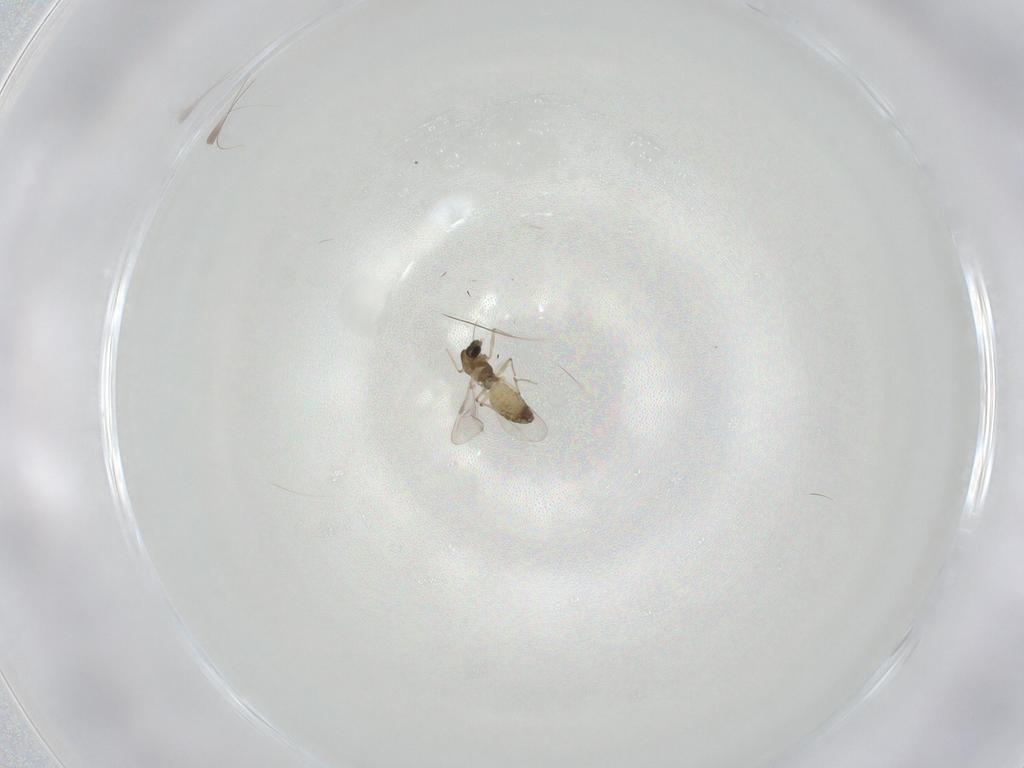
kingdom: Animalia
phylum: Arthropoda
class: Insecta
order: Diptera
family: Chironomidae
